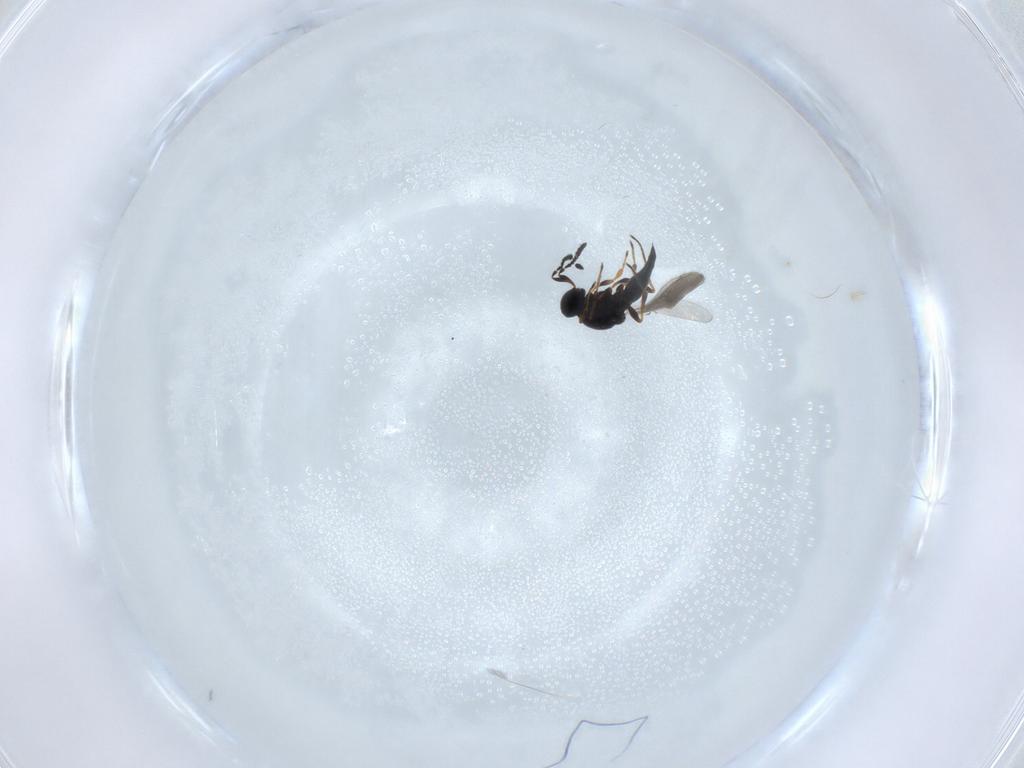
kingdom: Animalia
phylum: Arthropoda
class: Insecta
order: Hymenoptera
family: Platygastridae
